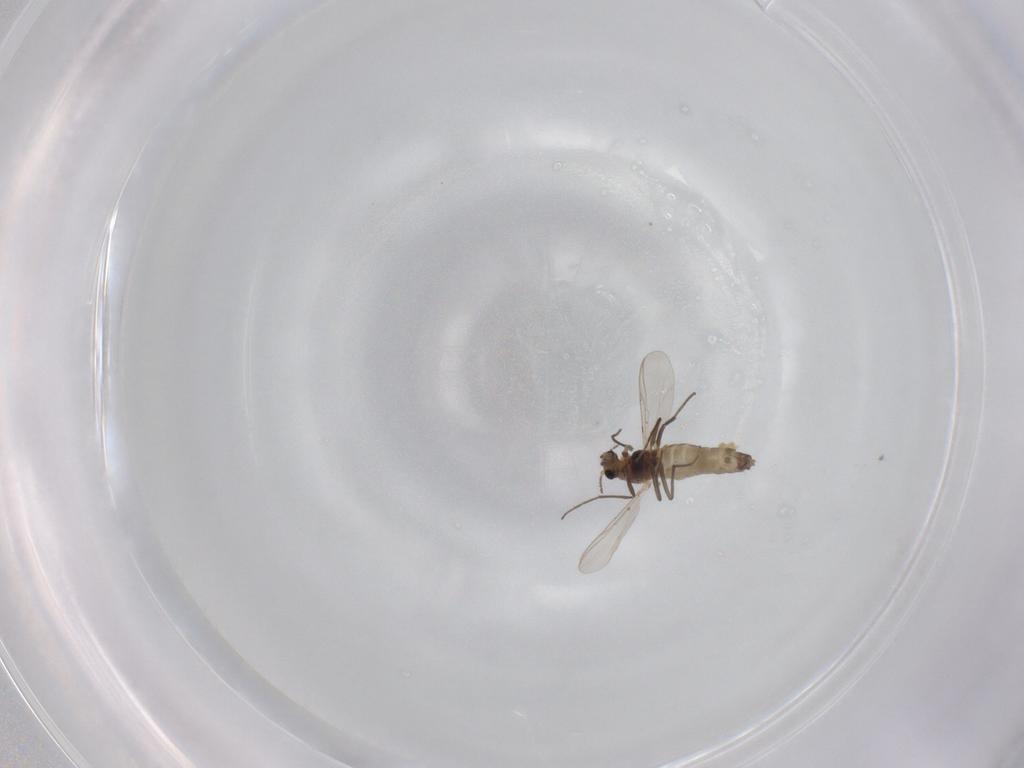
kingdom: Animalia
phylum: Arthropoda
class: Insecta
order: Diptera
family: Chironomidae
